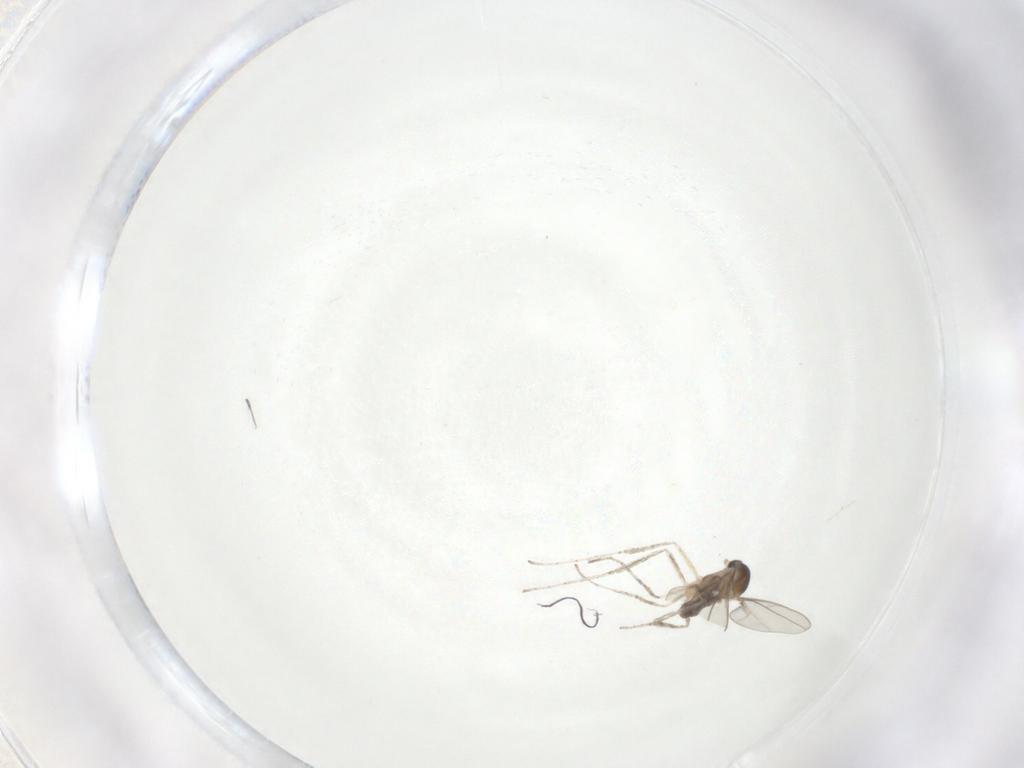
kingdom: Animalia
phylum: Arthropoda
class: Insecta
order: Diptera
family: Cecidomyiidae
